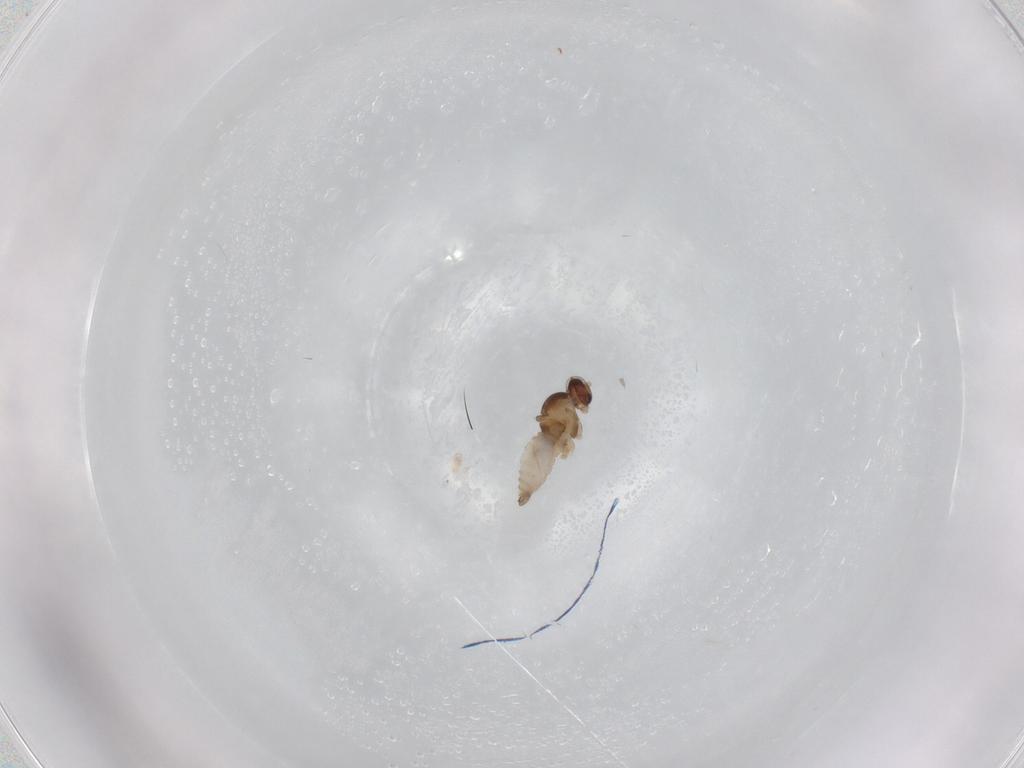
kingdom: Animalia
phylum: Arthropoda
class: Insecta
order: Diptera
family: Cecidomyiidae
